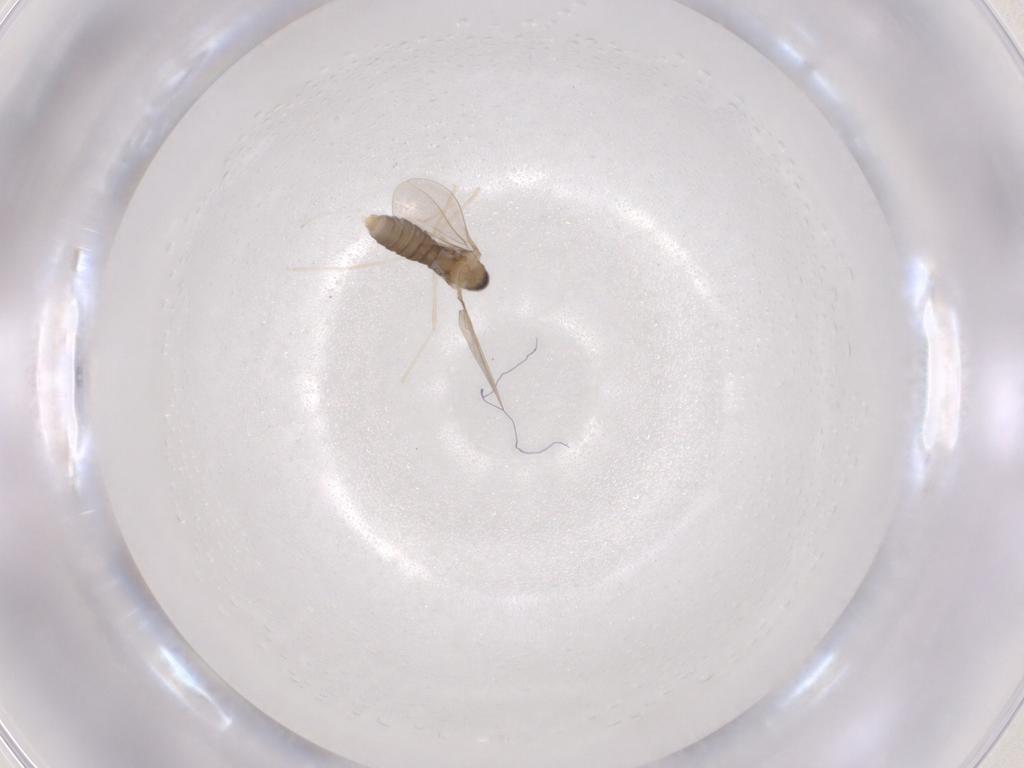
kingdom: Animalia
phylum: Arthropoda
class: Insecta
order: Diptera
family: Cecidomyiidae
